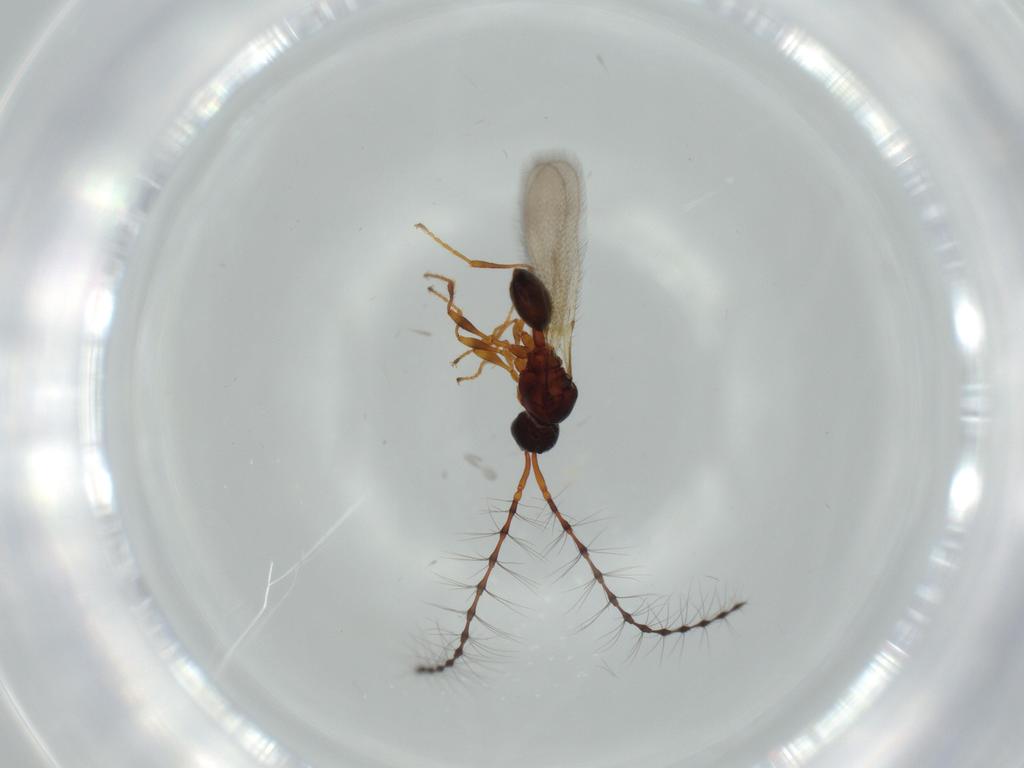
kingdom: Animalia
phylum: Arthropoda
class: Insecta
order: Hymenoptera
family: Diapriidae
